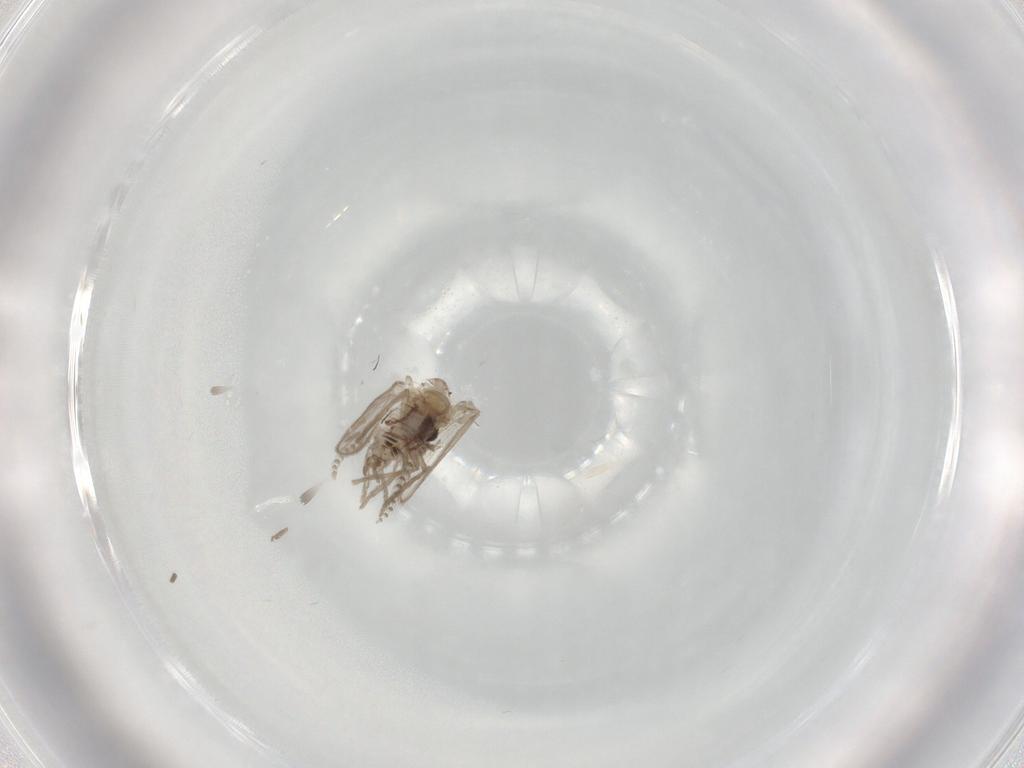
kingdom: Animalia
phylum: Arthropoda
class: Insecta
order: Diptera
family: Psychodidae
